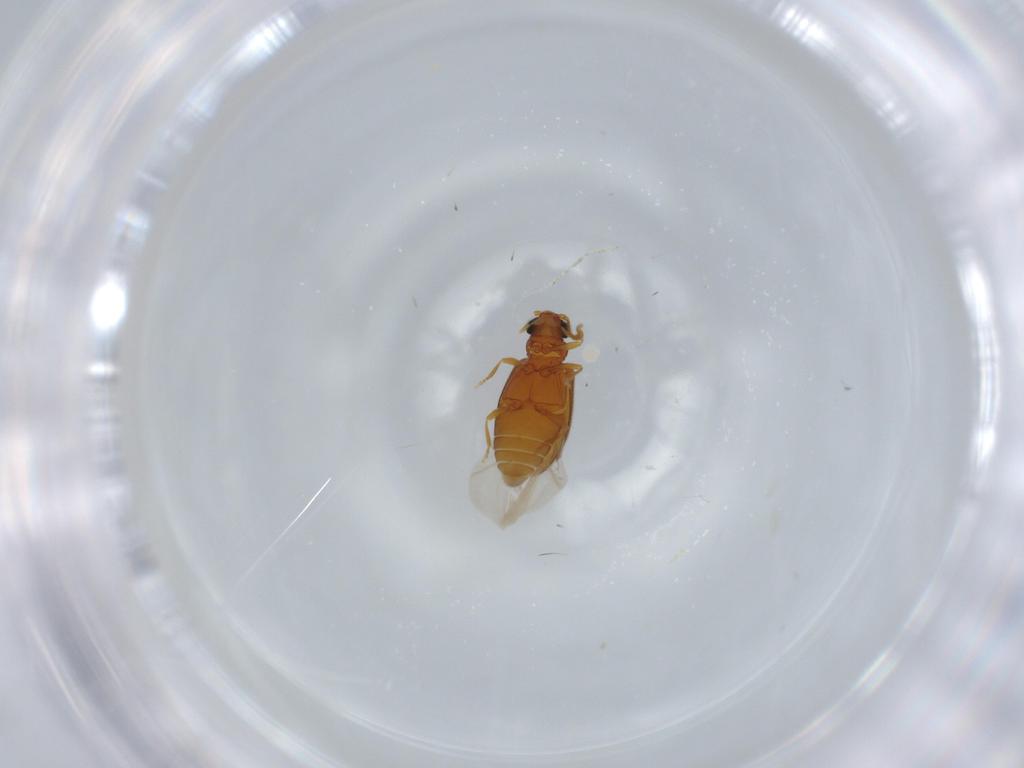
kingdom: Animalia
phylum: Arthropoda
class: Insecta
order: Coleoptera
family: Aderidae
